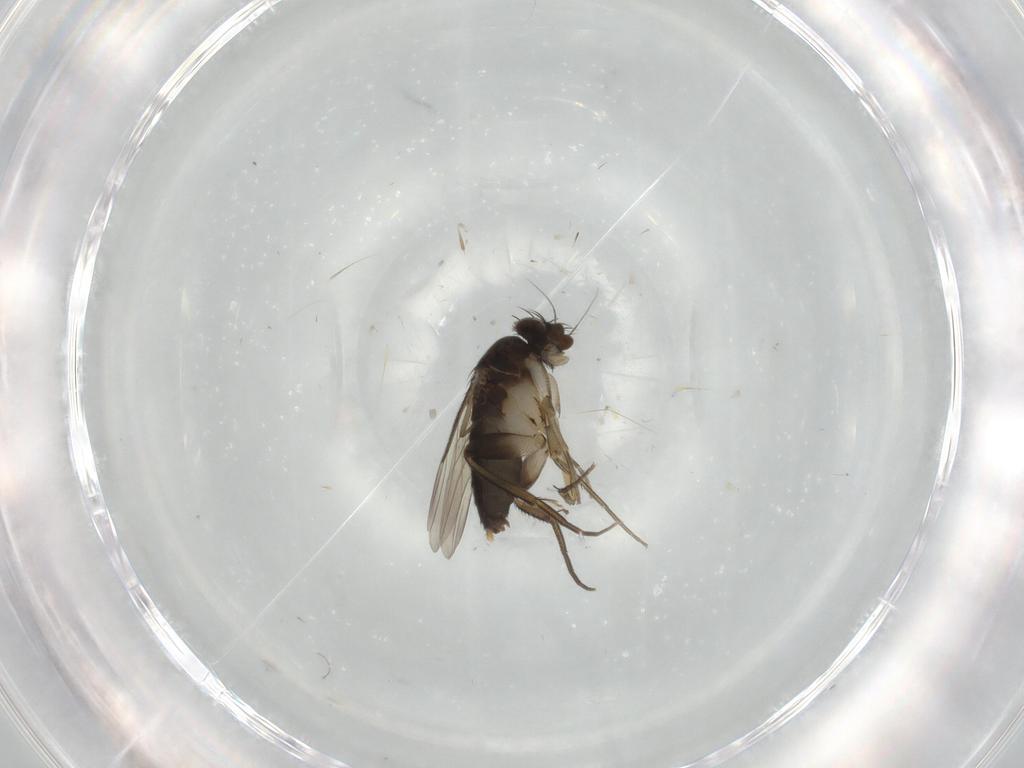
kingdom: Animalia
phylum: Arthropoda
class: Insecta
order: Diptera
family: Phoridae
